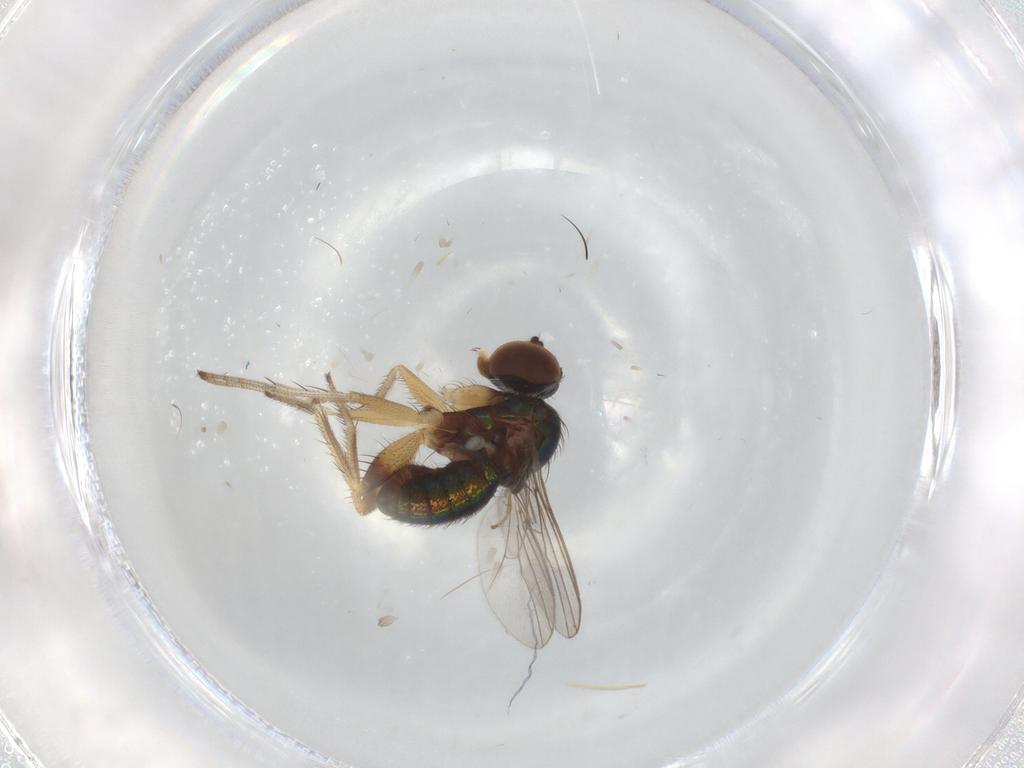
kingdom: Animalia
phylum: Arthropoda
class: Insecta
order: Diptera
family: Dolichopodidae
